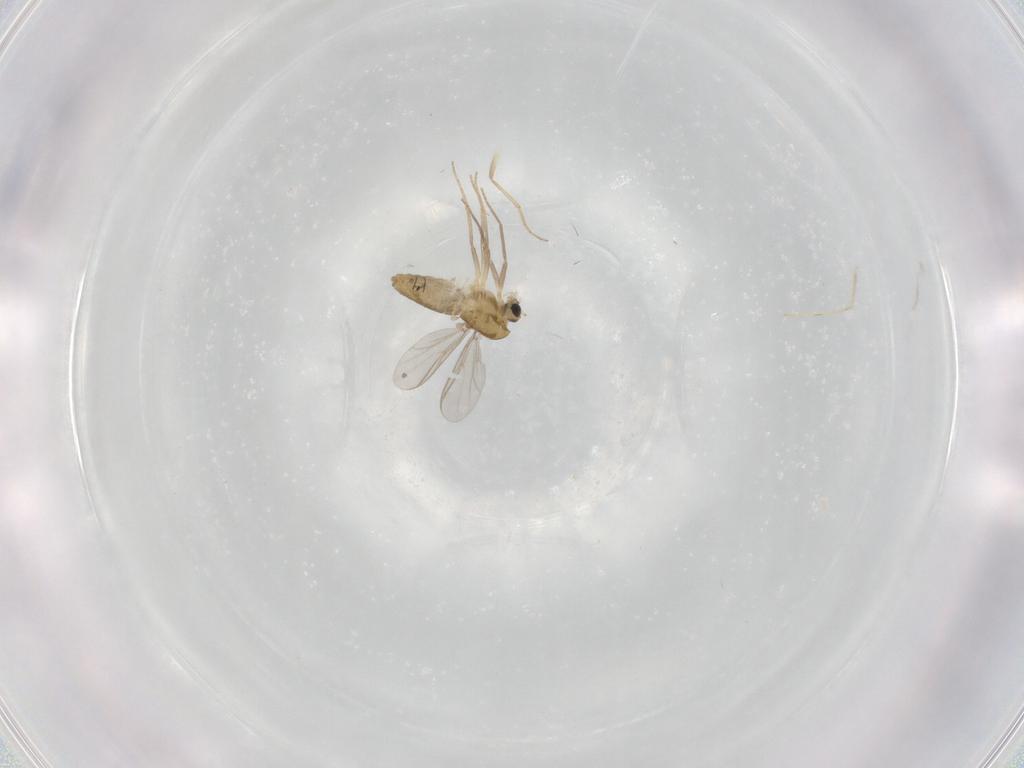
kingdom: Animalia
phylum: Arthropoda
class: Insecta
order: Diptera
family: Chironomidae
